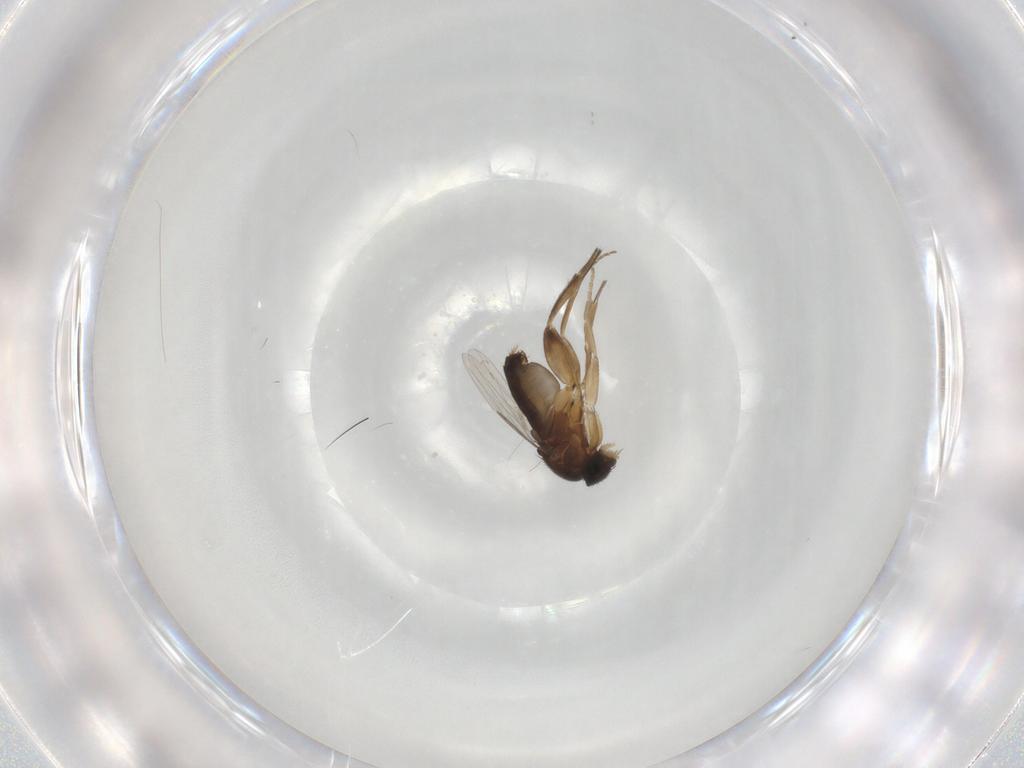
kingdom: Animalia
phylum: Arthropoda
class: Insecta
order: Diptera
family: Phoridae
